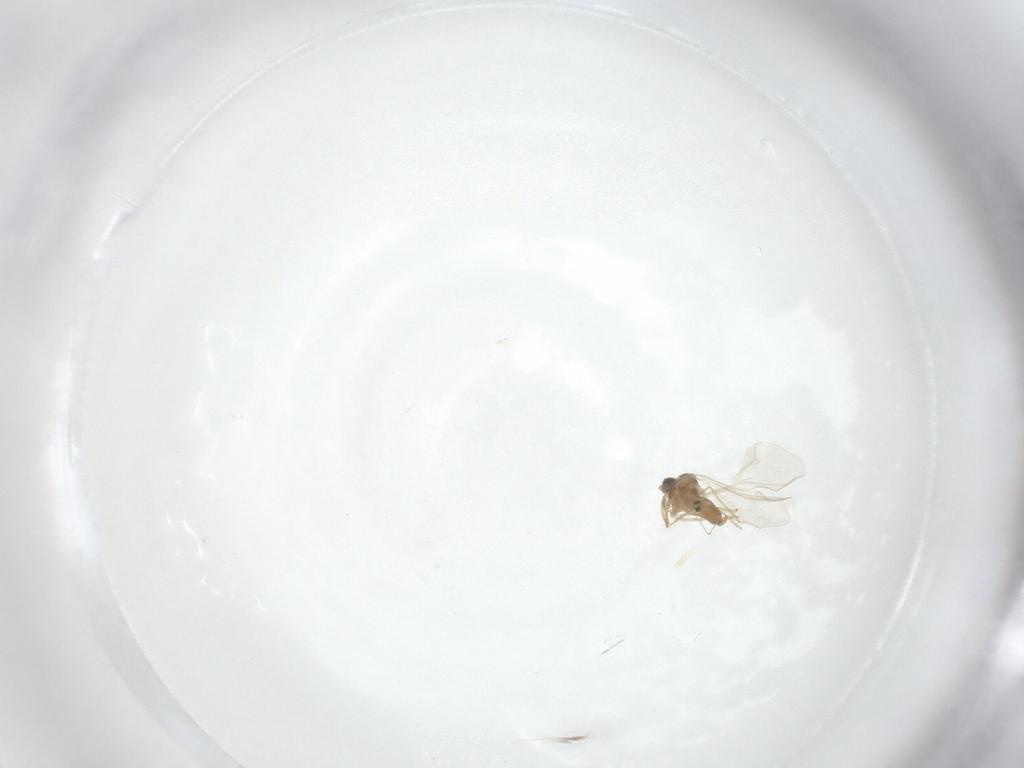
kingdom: Animalia
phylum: Arthropoda
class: Insecta
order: Diptera
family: Cecidomyiidae
